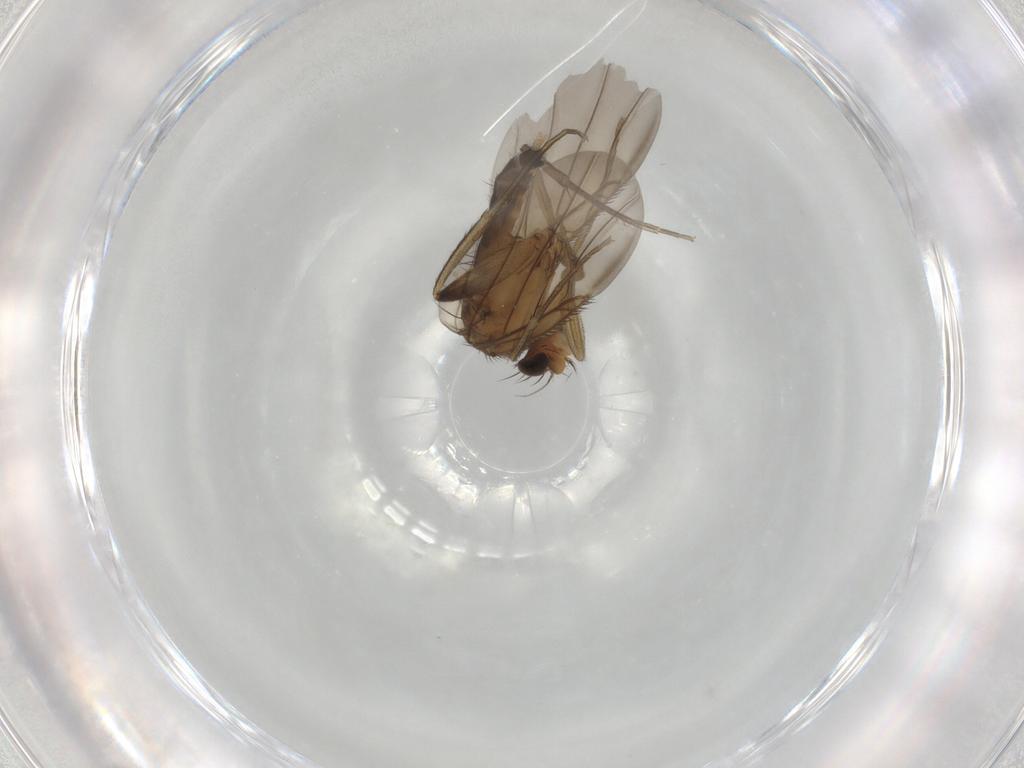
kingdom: Animalia
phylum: Arthropoda
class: Insecta
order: Diptera
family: Phoridae
